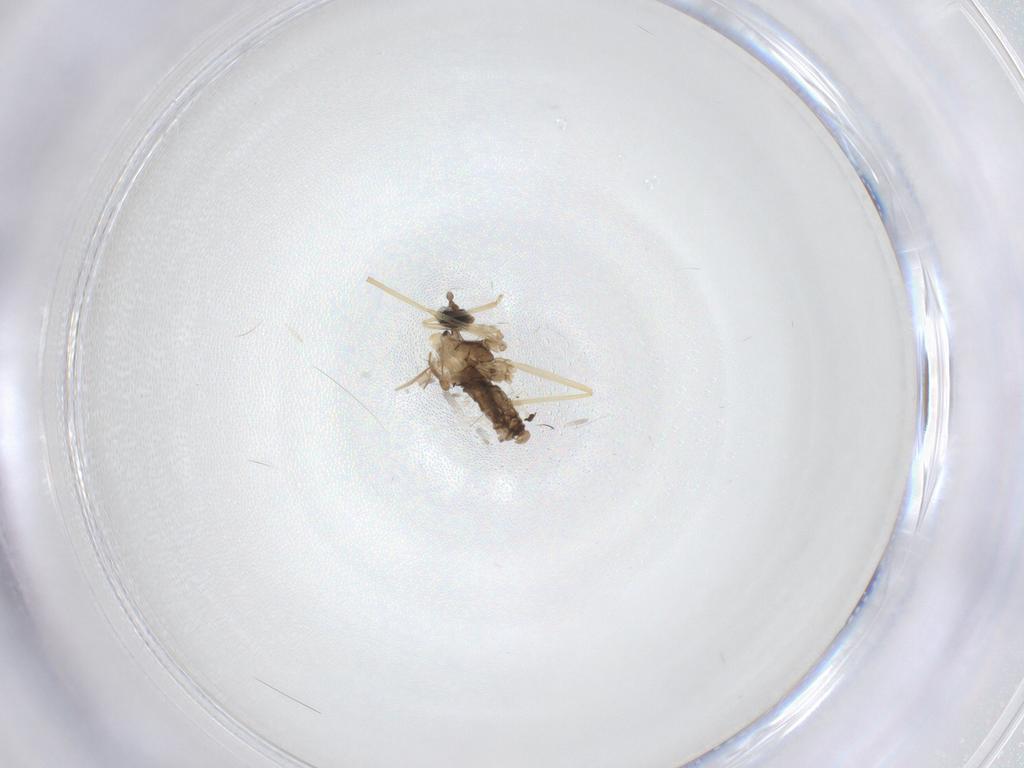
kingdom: Animalia
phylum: Arthropoda
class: Insecta
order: Diptera
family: Cecidomyiidae
